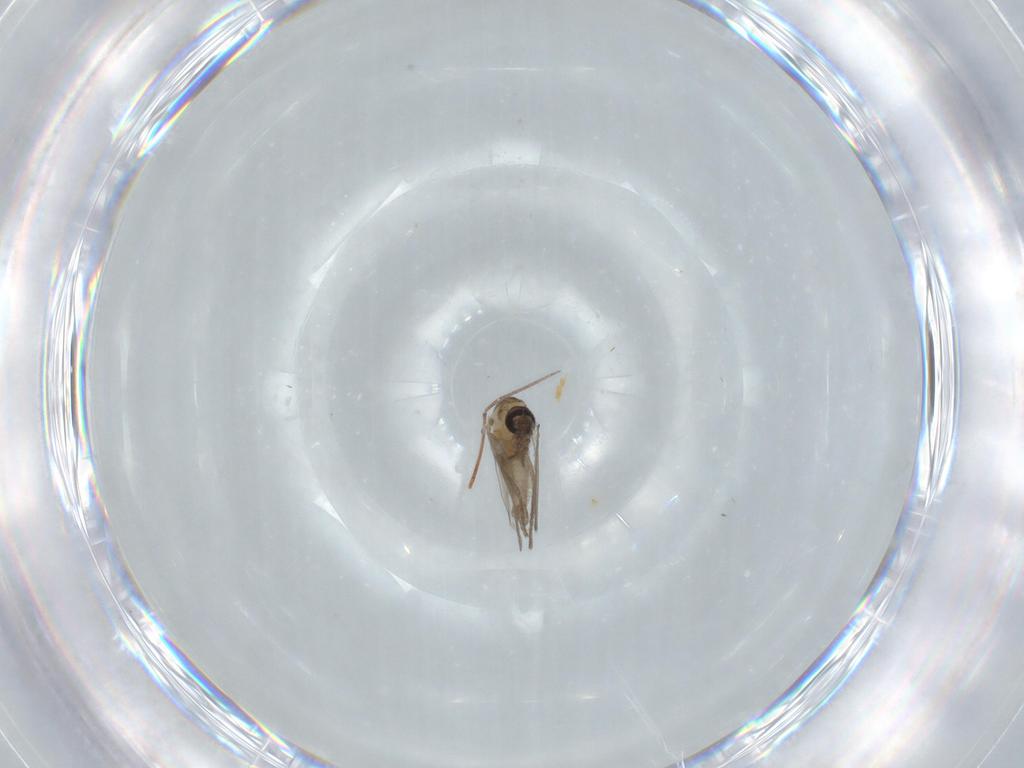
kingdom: Animalia
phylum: Arthropoda
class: Insecta
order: Diptera
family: Psychodidae
